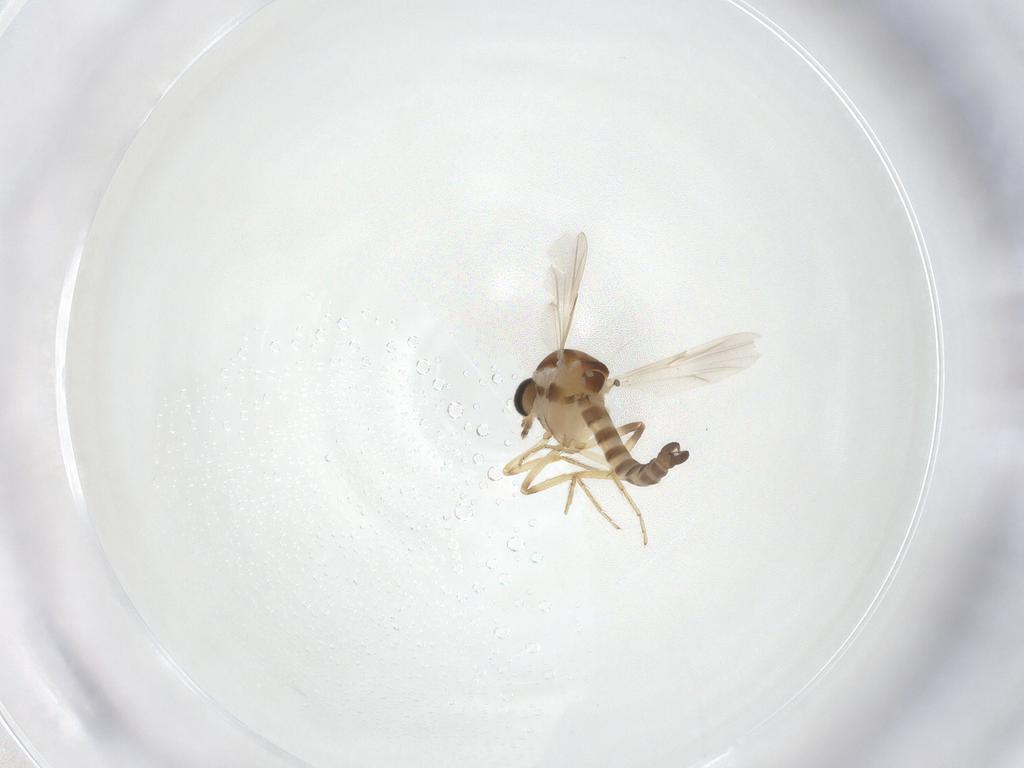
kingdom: Animalia
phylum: Arthropoda
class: Insecta
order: Diptera
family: Ceratopogonidae
